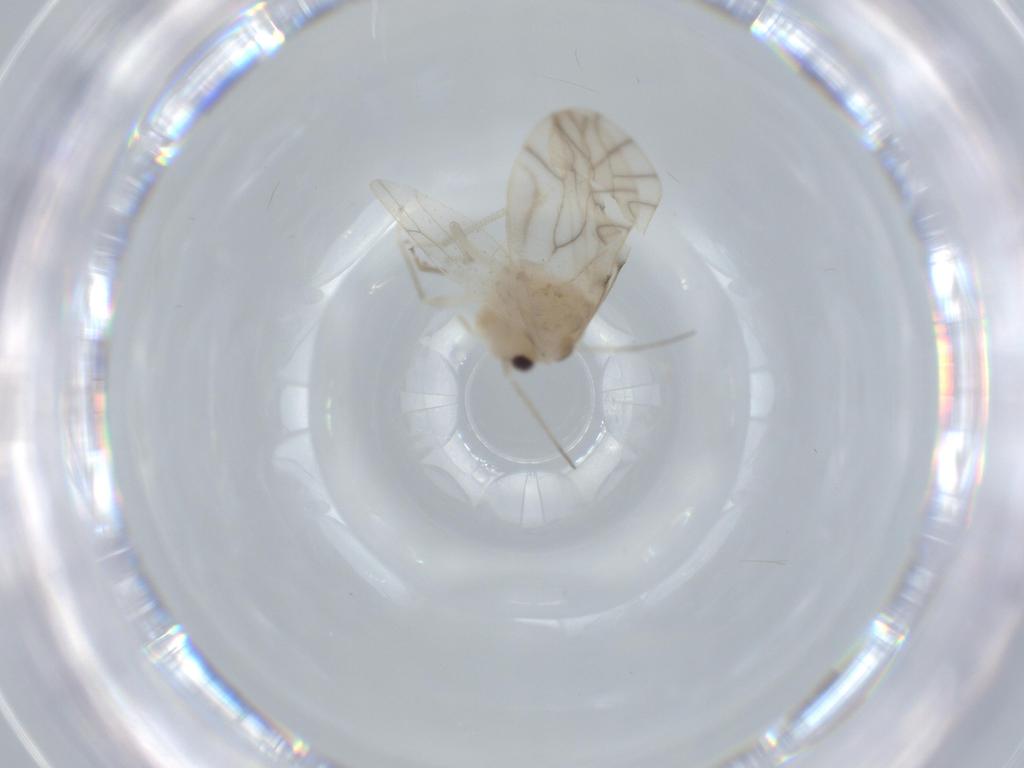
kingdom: Animalia
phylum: Arthropoda
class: Insecta
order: Psocodea
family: Caeciliusidae
